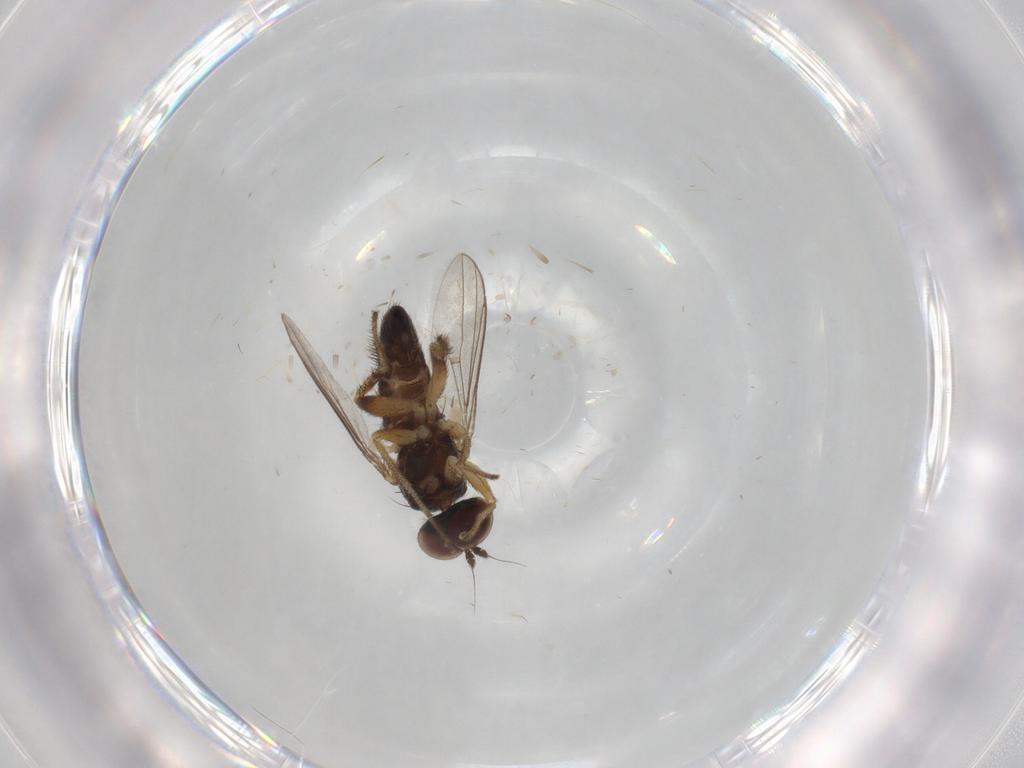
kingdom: Animalia
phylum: Arthropoda
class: Insecta
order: Diptera
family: Cecidomyiidae
